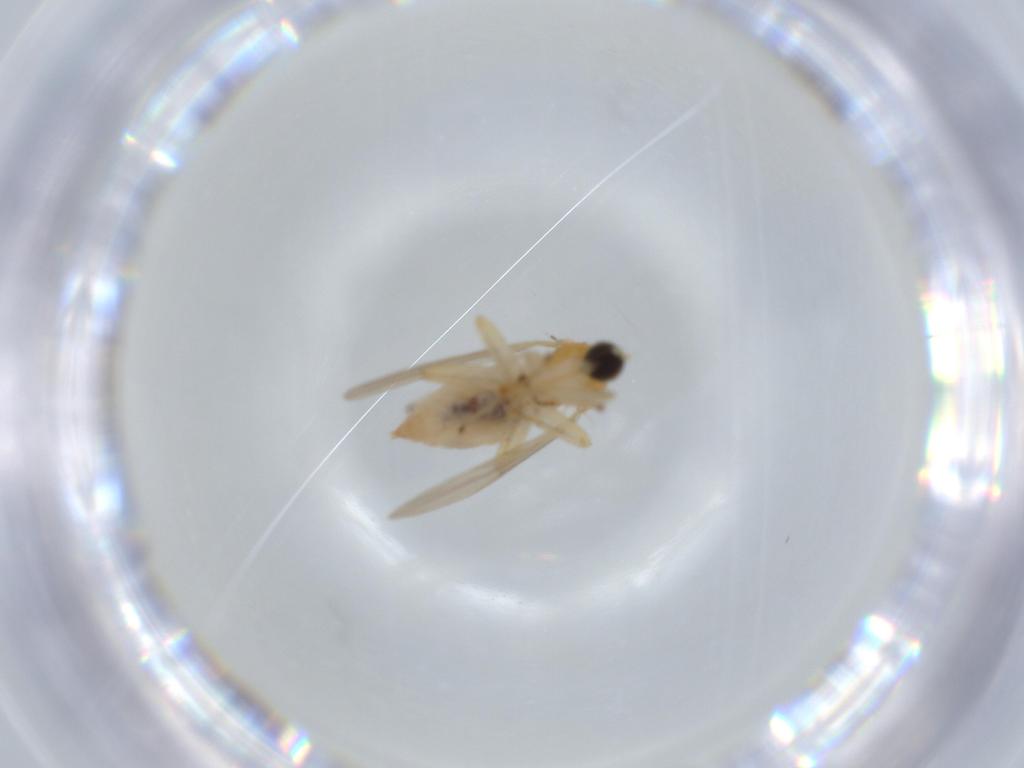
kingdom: Animalia
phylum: Arthropoda
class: Insecta
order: Diptera
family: Hybotidae
